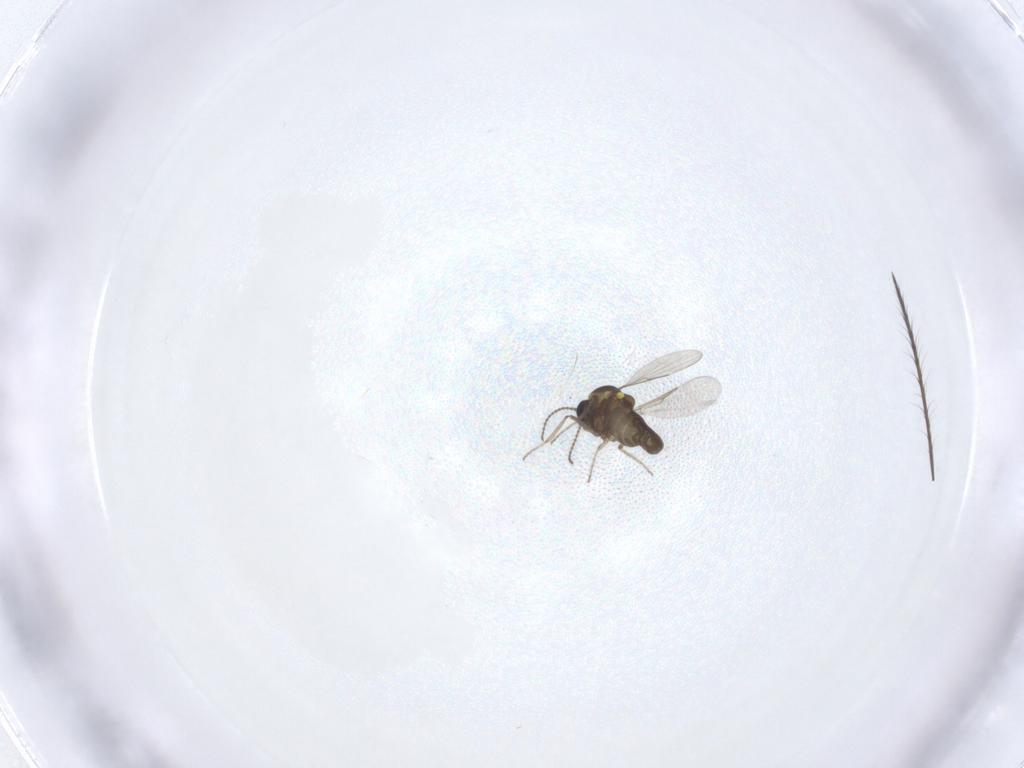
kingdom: Animalia
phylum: Arthropoda
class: Insecta
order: Diptera
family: Ceratopogonidae
